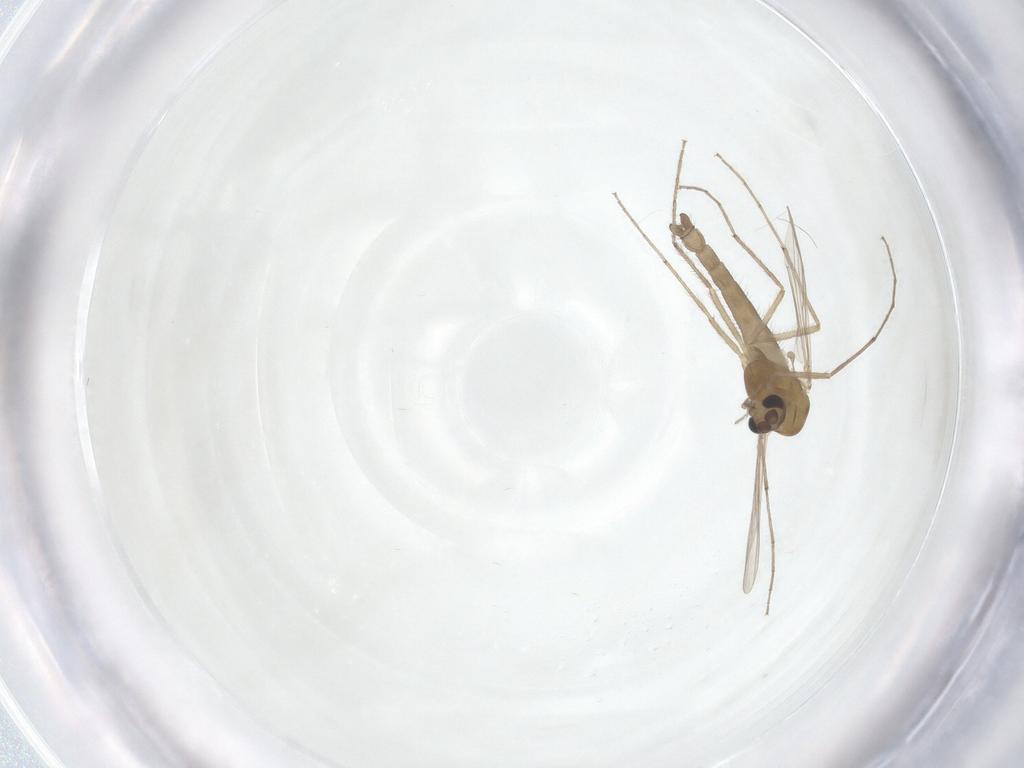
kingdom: Animalia
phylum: Arthropoda
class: Insecta
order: Diptera
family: Chironomidae
